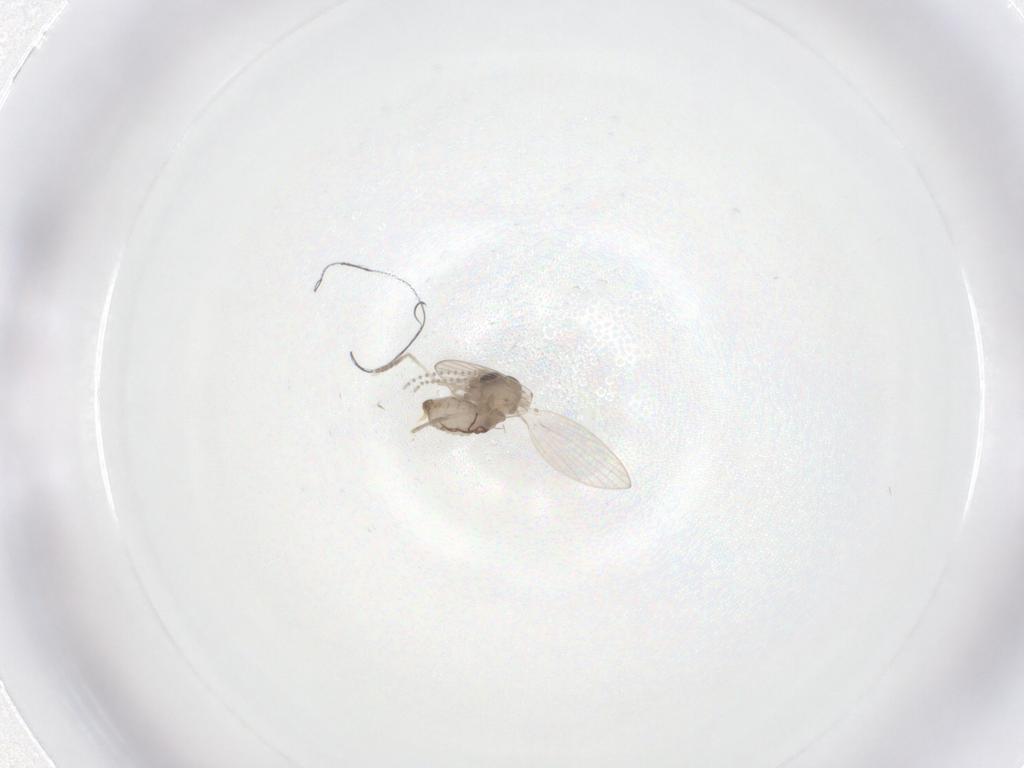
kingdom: Animalia
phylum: Arthropoda
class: Insecta
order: Diptera
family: Psychodidae
